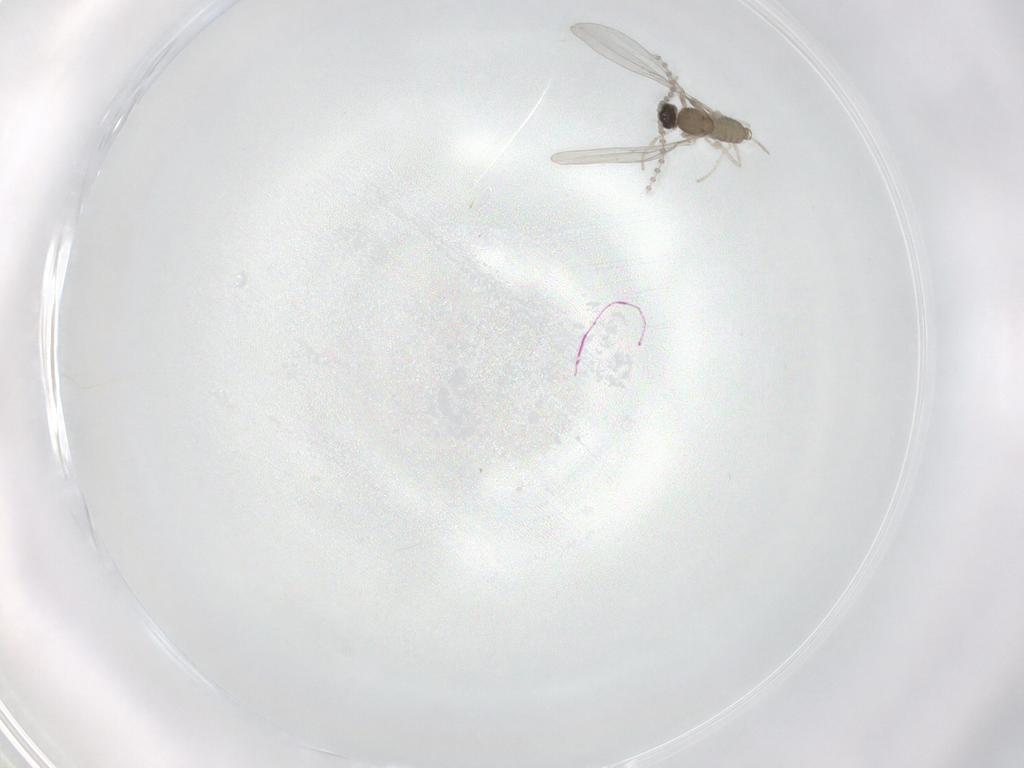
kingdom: Animalia
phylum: Arthropoda
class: Insecta
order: Diptera
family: Cecidomyiidae
